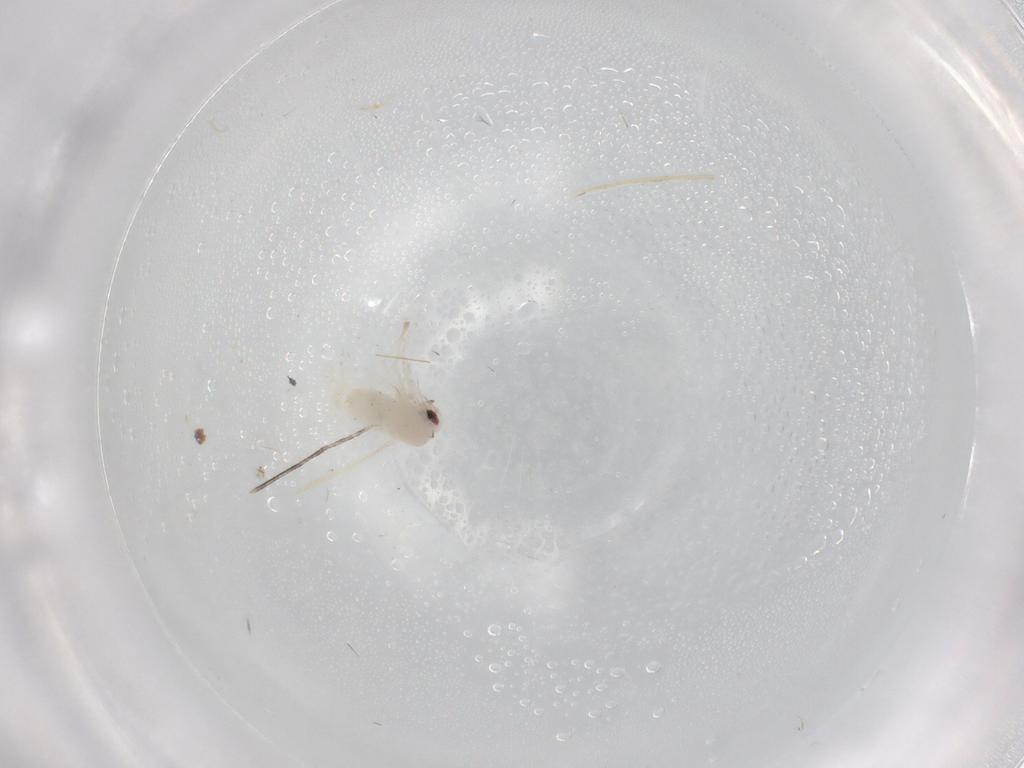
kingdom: Animalia
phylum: Arthropoda
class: Insecta
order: Diptera
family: Cecidomyiidae
